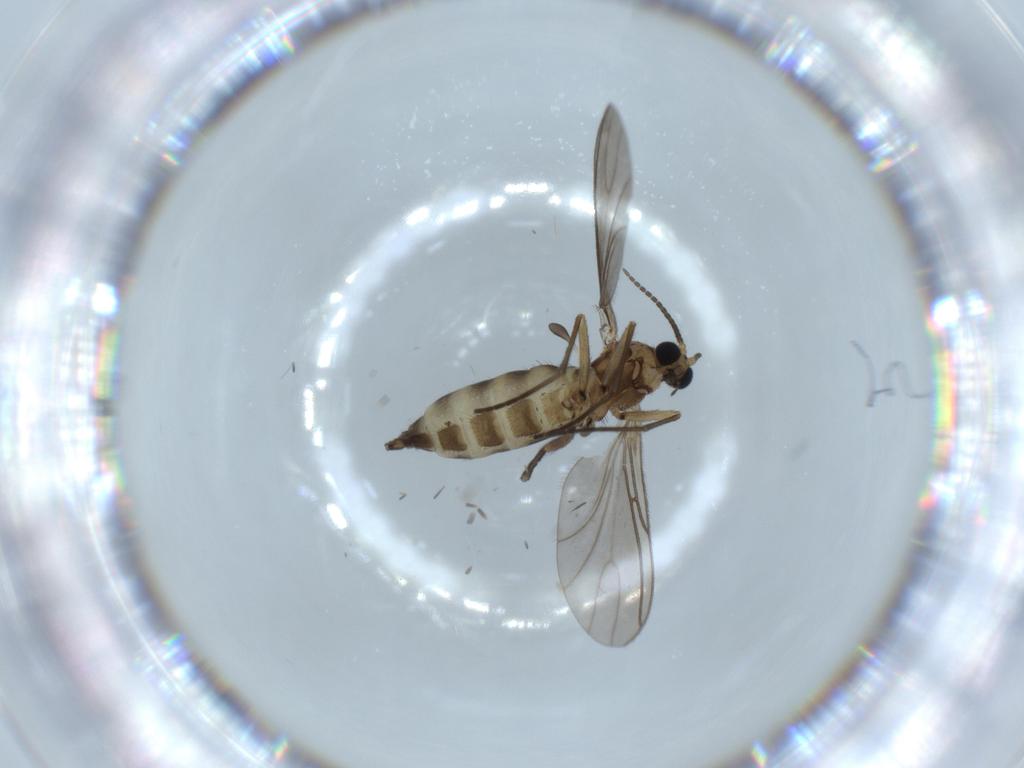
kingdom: Animalia
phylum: Arthropoda
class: Insecta
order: Diptera
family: Sciaridae
